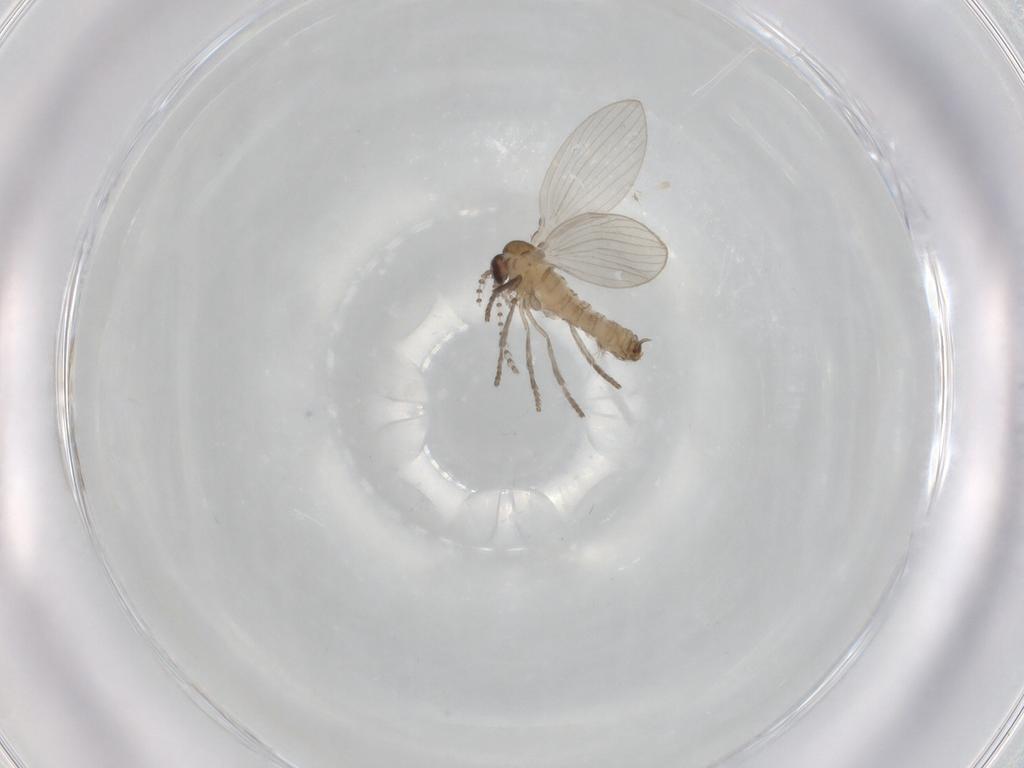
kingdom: Animalia
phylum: Arthropoda
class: Insecta
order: Diptera
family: Psychodidae
